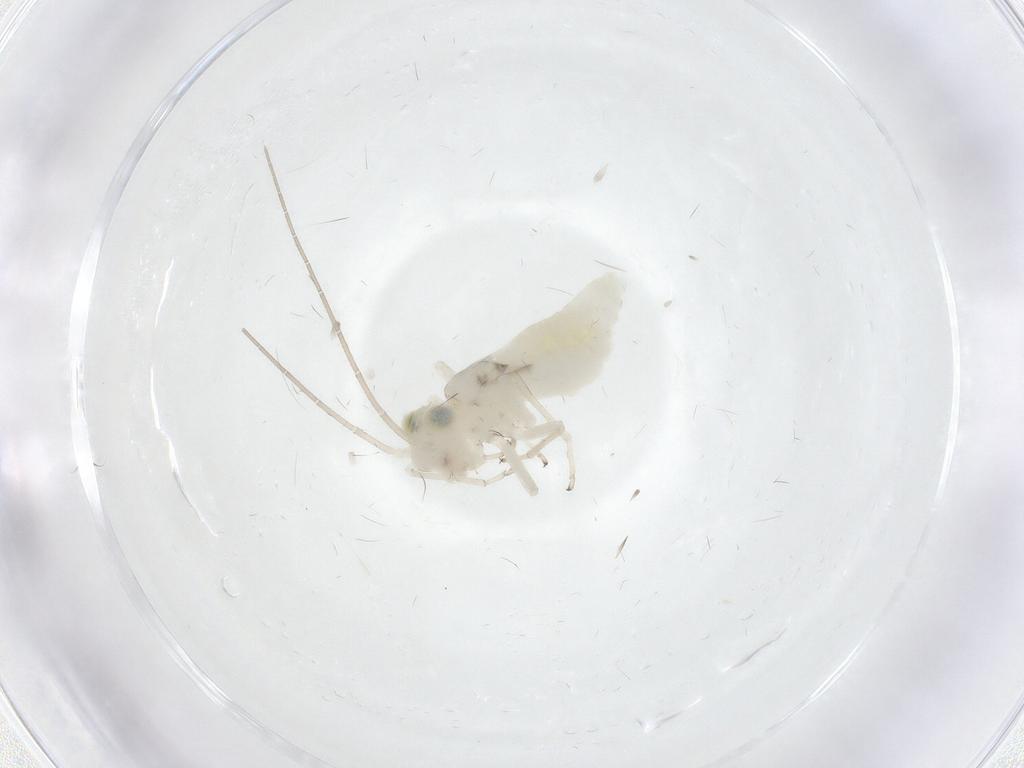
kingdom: Animalia
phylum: Arthropoda
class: Insecta
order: Psocodea
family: Caeciliusidae
